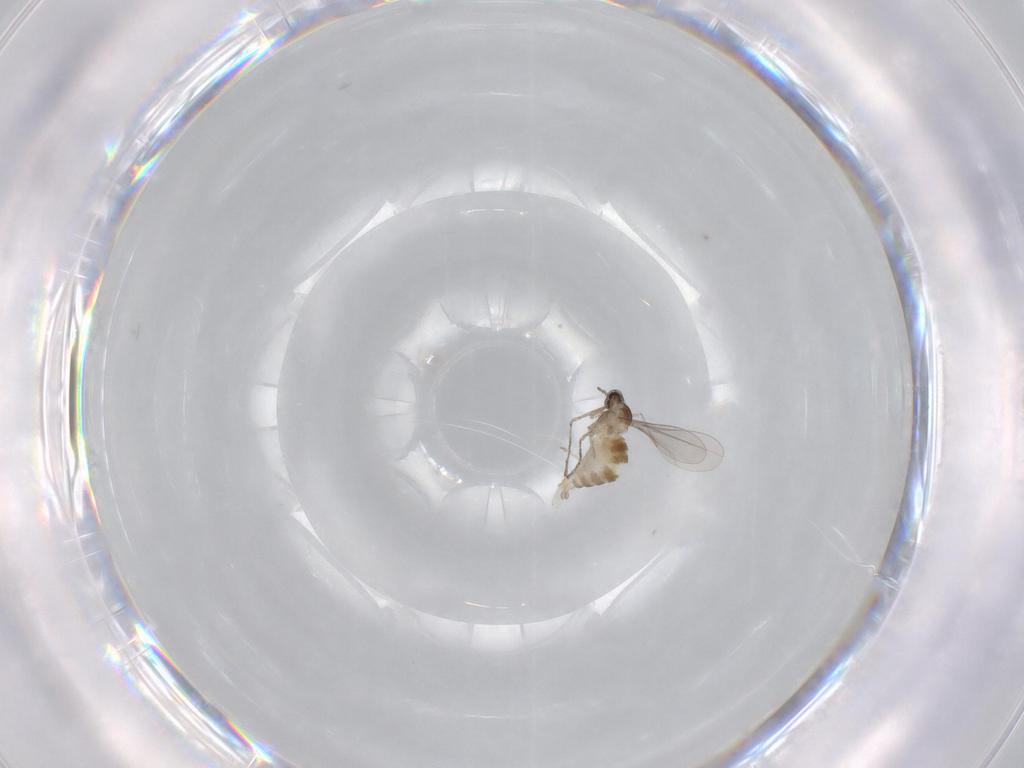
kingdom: Animalia
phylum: Arthropoda
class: Insecta
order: Diptera
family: Cecidomyiidae
